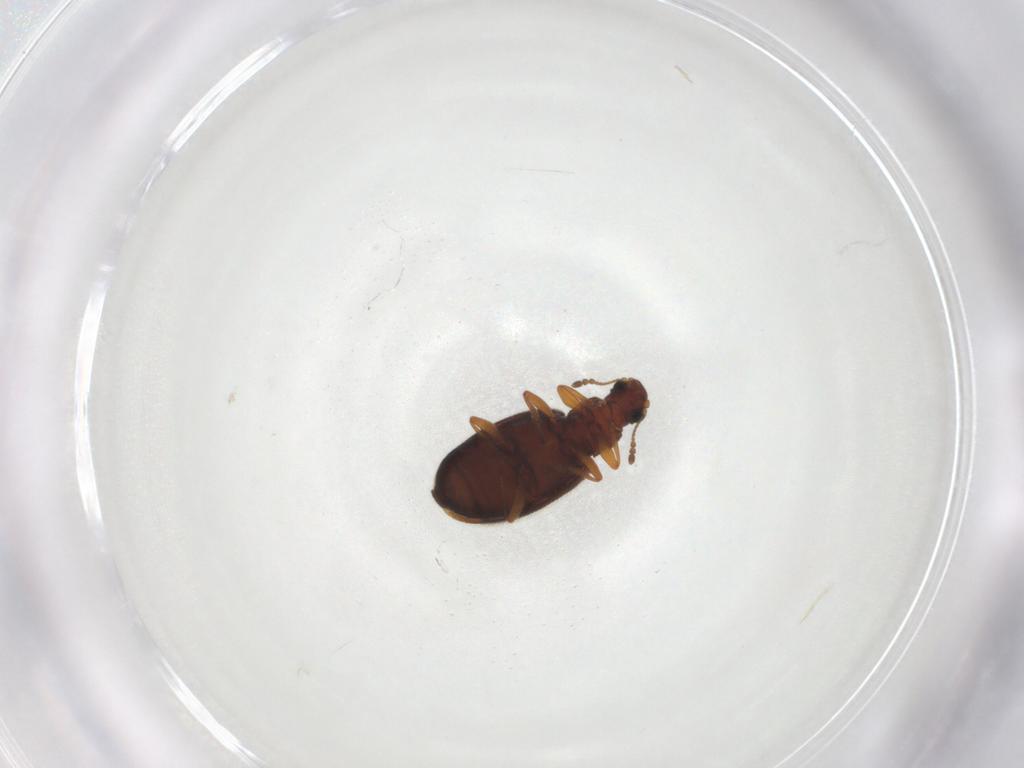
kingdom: Animalia
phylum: Arthropoda
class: Insecta
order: Coleoptera
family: Latridiidae
